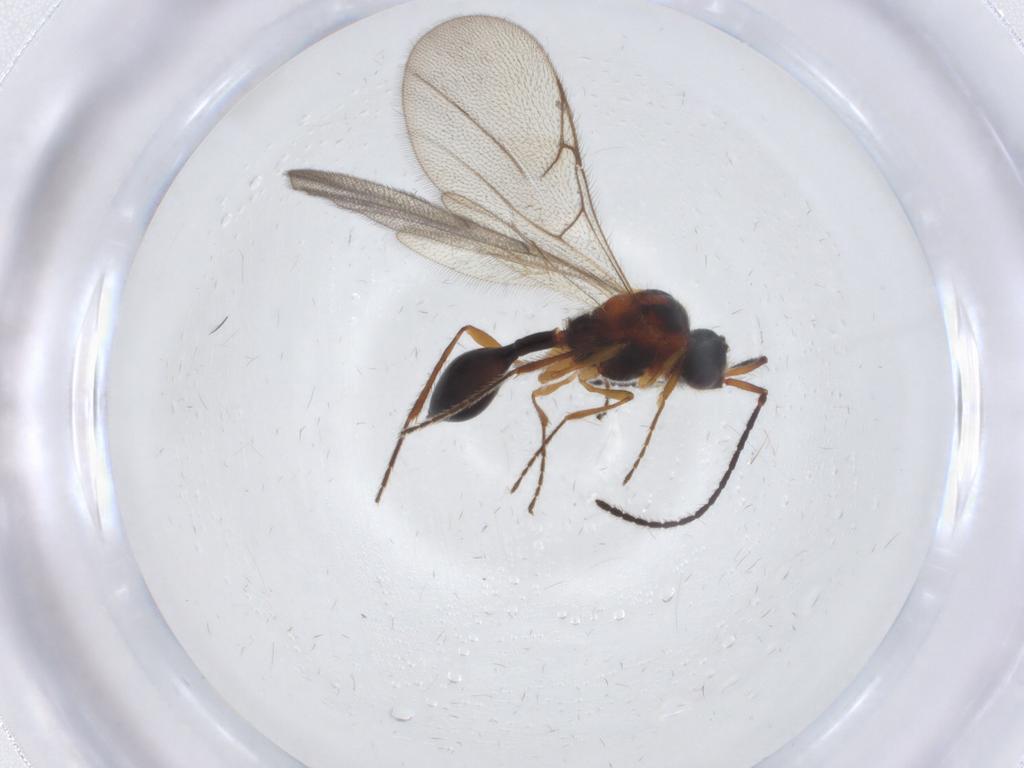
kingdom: Animalia
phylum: Arthropoda
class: Insecta
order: Hymenoptera
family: Diapriidae
